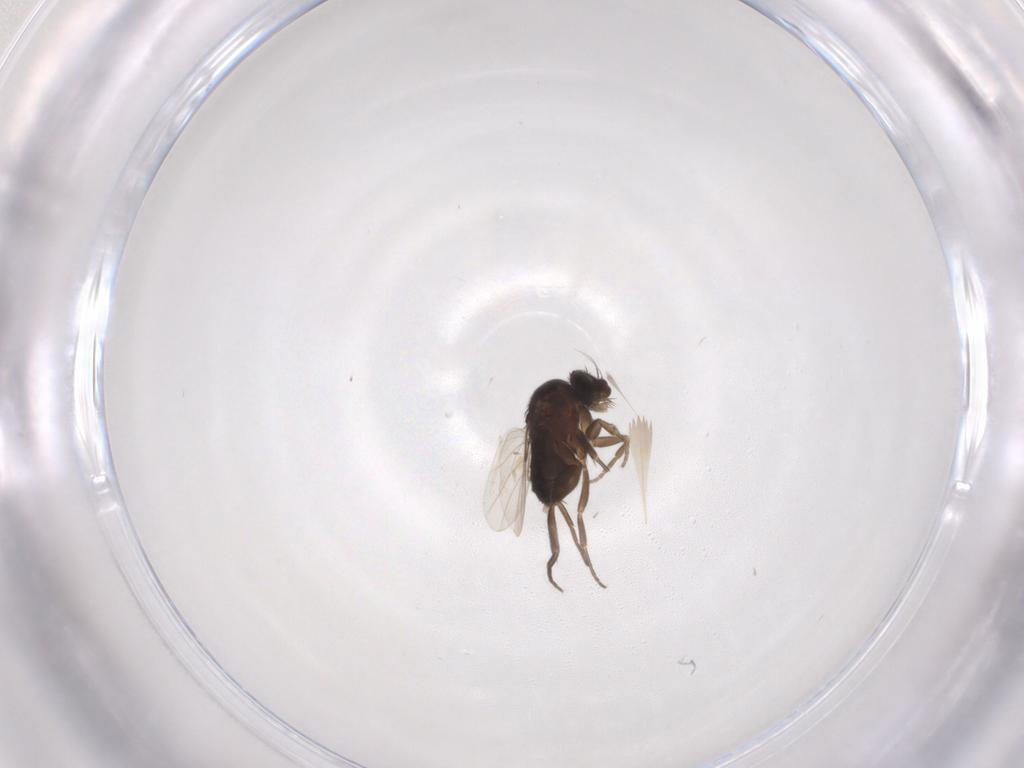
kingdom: Animalia
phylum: Arthropoda
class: Insecta
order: Diptera
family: Phoridae
